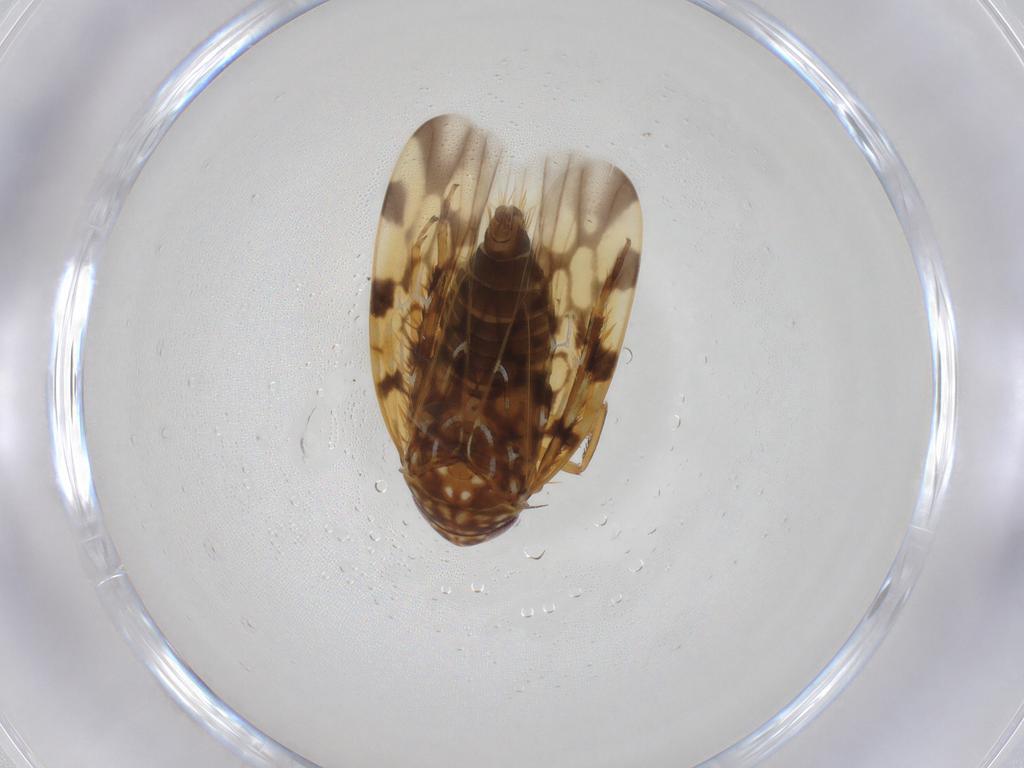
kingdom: Animalia
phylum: Arthropoda
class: Insecta
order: Hemiptera
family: Cicadellidae
